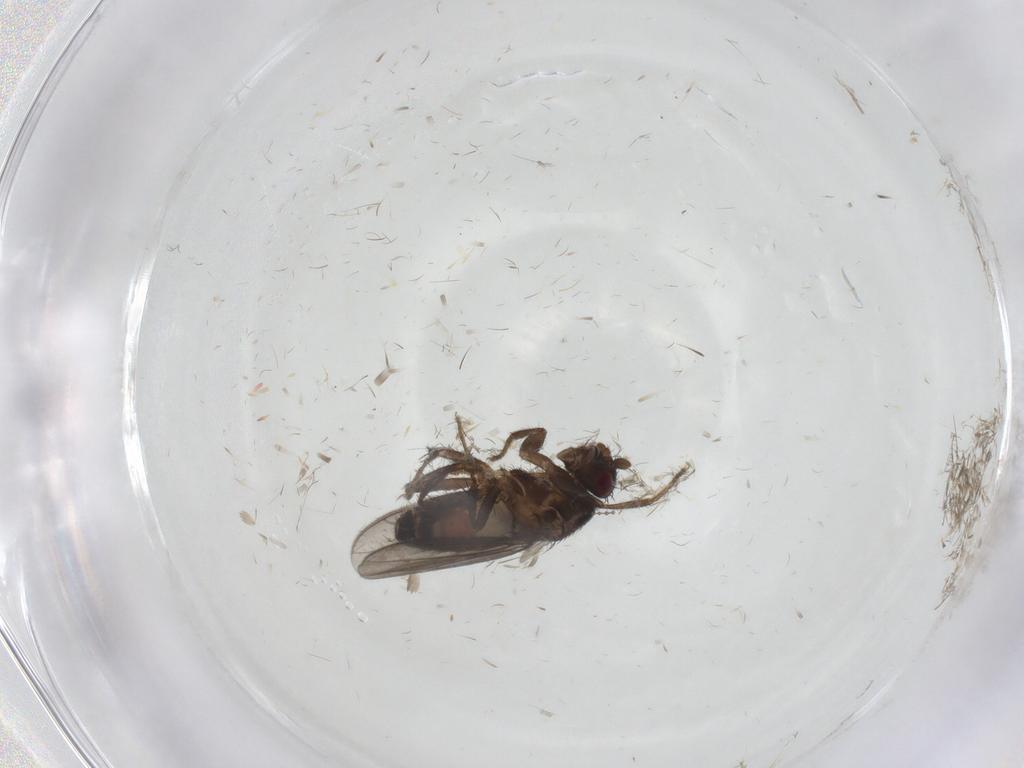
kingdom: Animalia
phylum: Arthropoda
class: Insecta
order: Diptera
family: Sphaeroceridae
